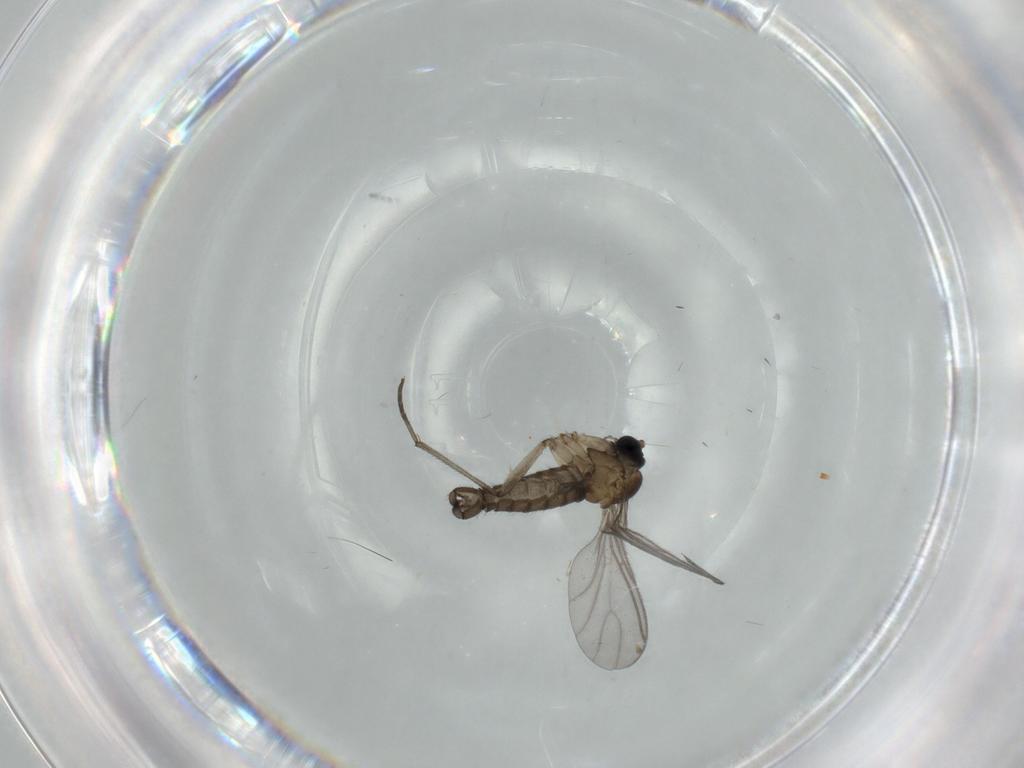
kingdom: Animalia
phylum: Arthropoda
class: Insecta
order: Diptera
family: Sciaridae
